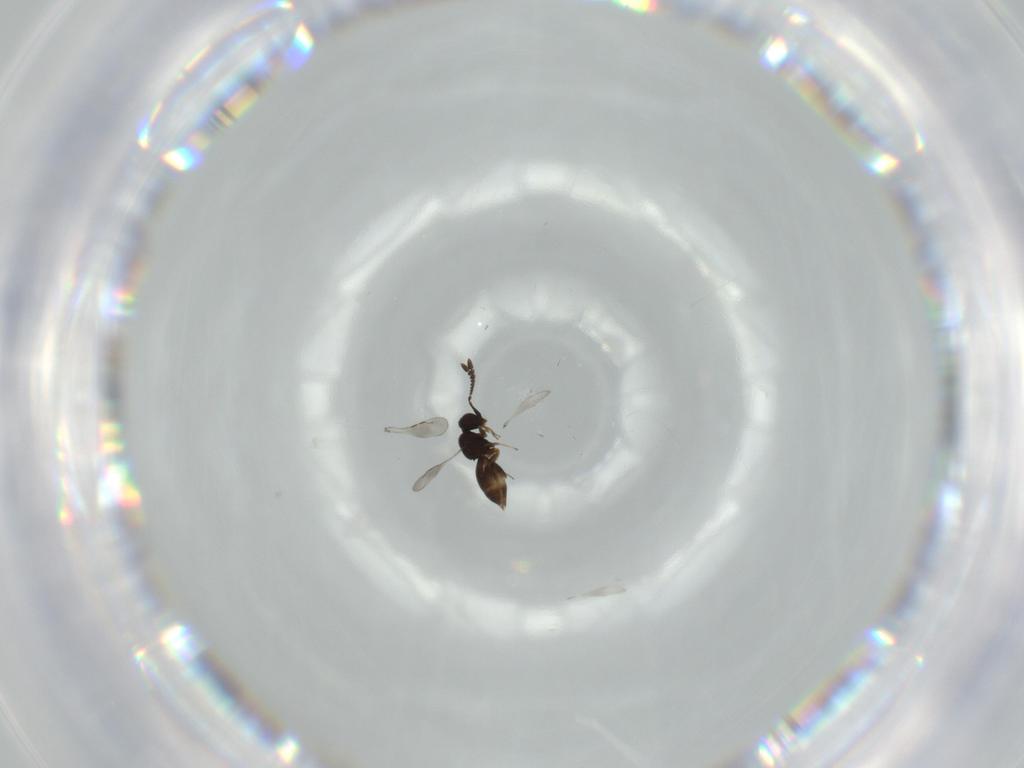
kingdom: Animalia
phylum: Arthropoda
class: Insecta
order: Hymenoptera
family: Ceraphronidae
